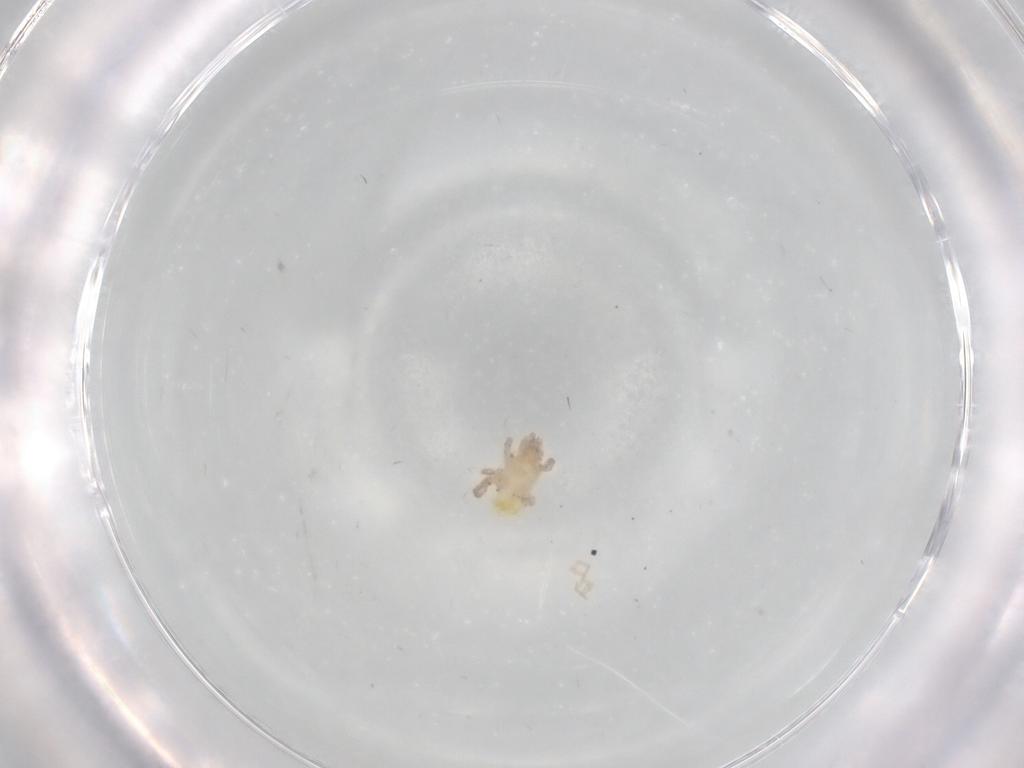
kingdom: Animalia
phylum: Arthropoda
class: Arachnida
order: Mesostigmata
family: Arctacaridae
